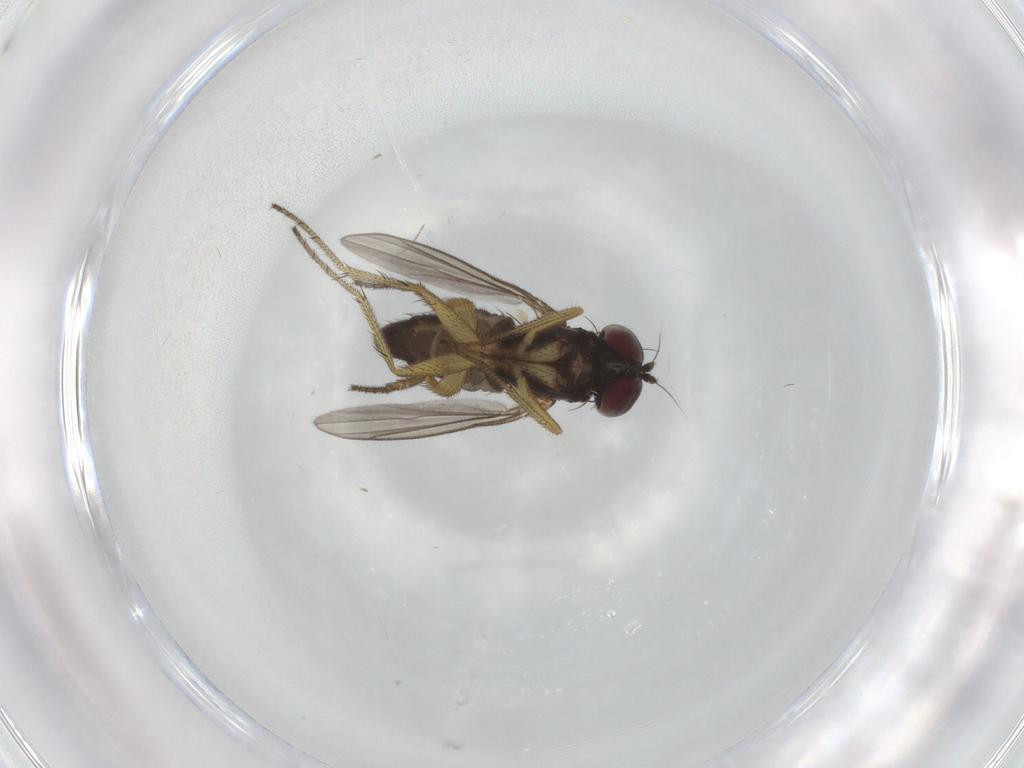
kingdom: Animalia
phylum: Arthropoda
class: Insecta
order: Diptera
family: Dolichopodidae
